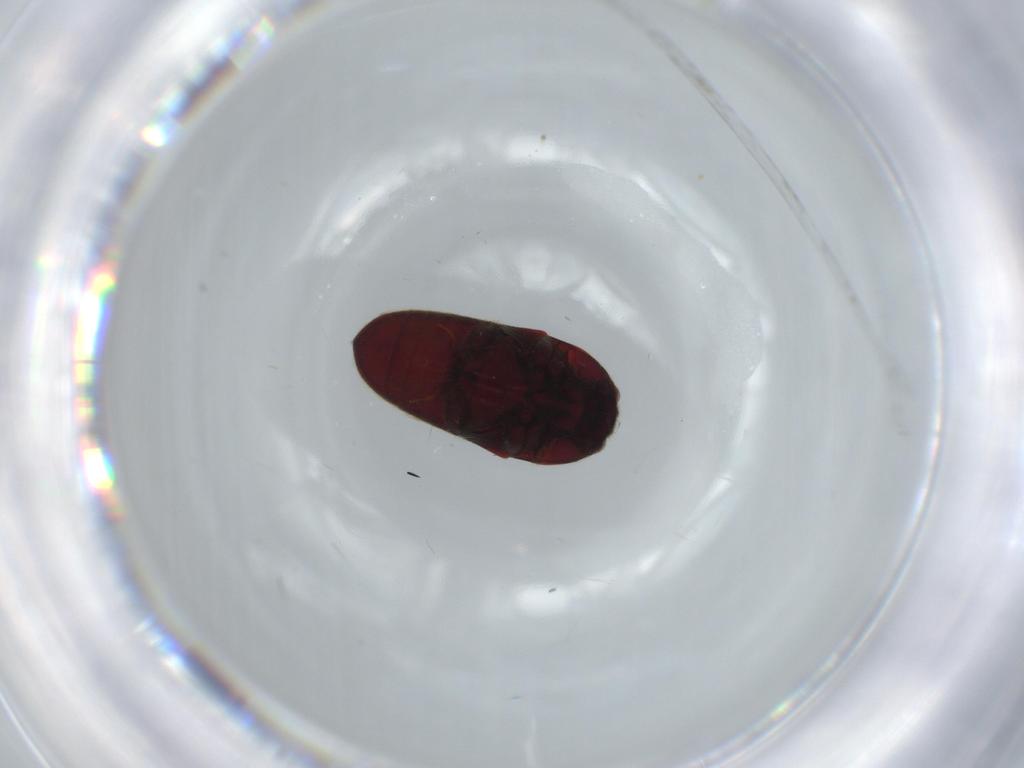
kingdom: Animalia
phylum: Arthropoda
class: Insecta
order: Coleoptera
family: Throscidae
